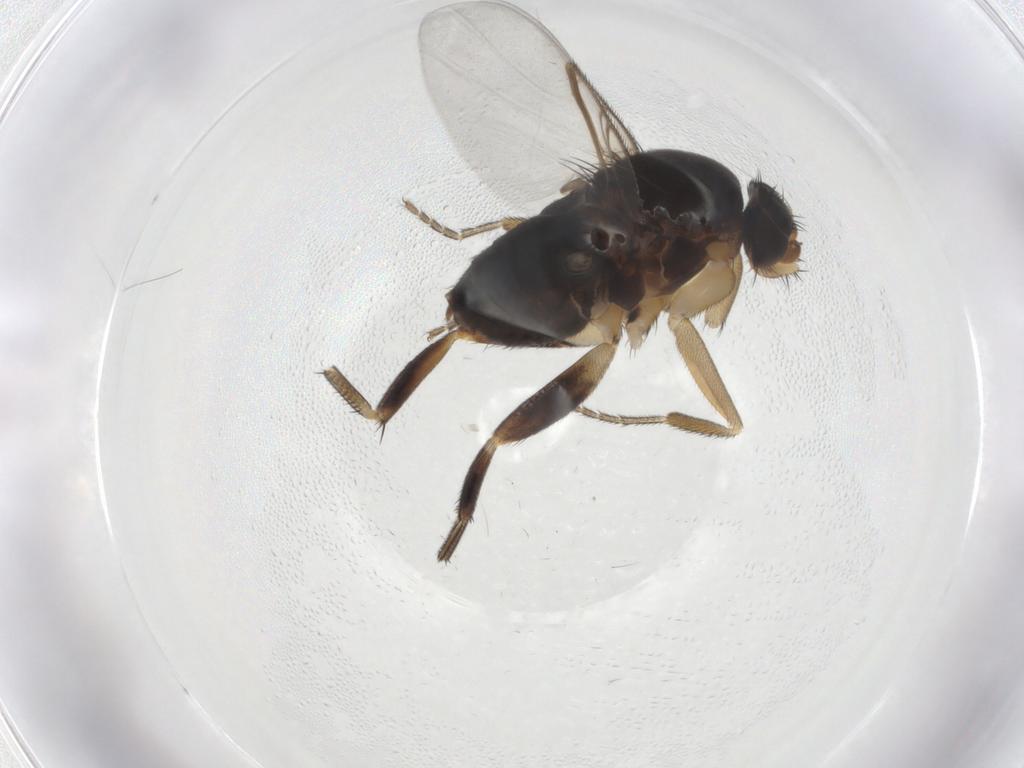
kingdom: Animalia
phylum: Arthropoda
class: Insecta
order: Diptera
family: Phoridae
